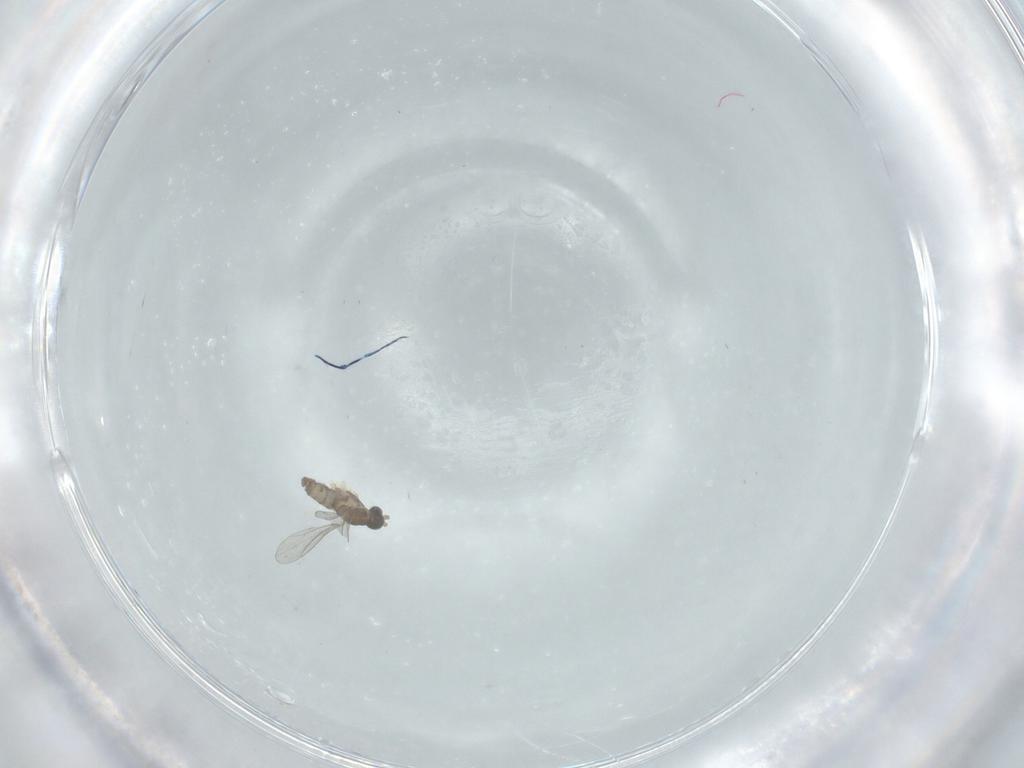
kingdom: Animalia
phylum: Arthropoda
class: Insecta
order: Diptera
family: Cecidomyiidae
